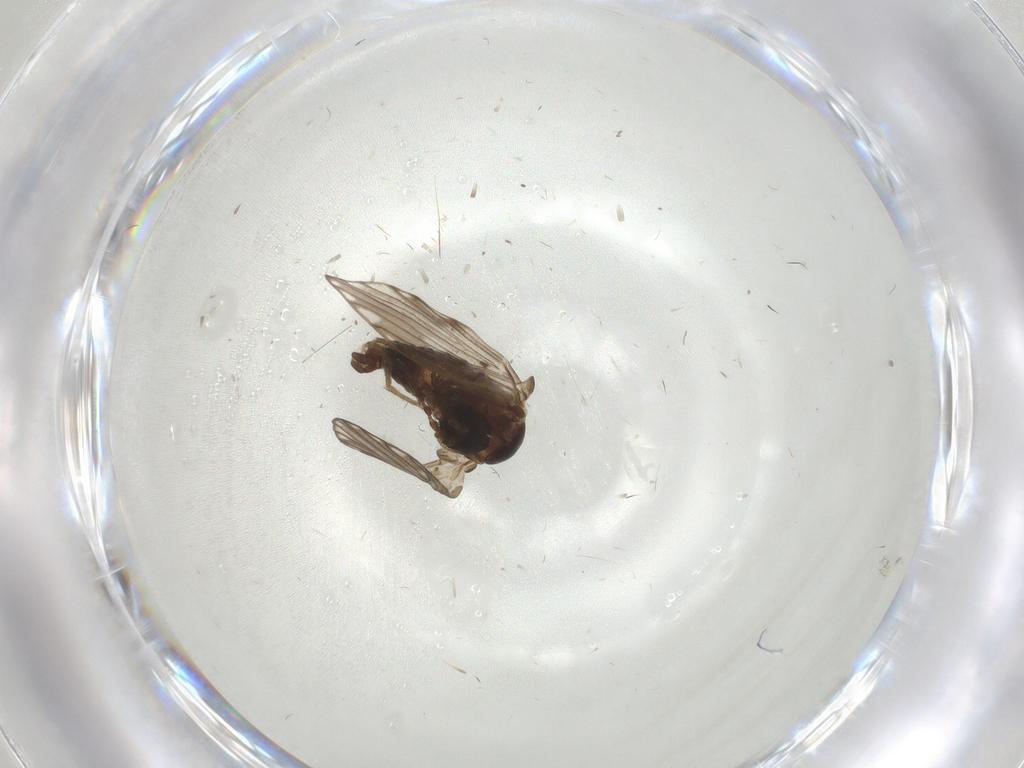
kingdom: Animalia
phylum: Arthropoda
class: Insecta
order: Diptera
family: Psychodidae
